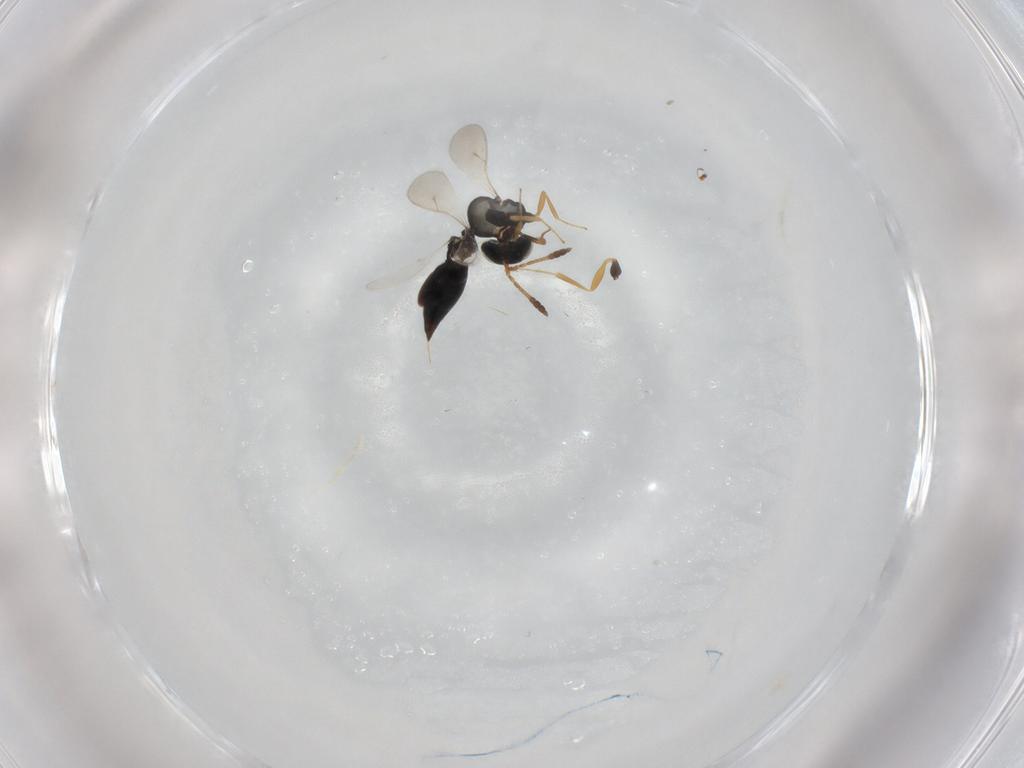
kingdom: Animalia
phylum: Arthropoda
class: Insecta
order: Hymenoptera
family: Scelionidae
